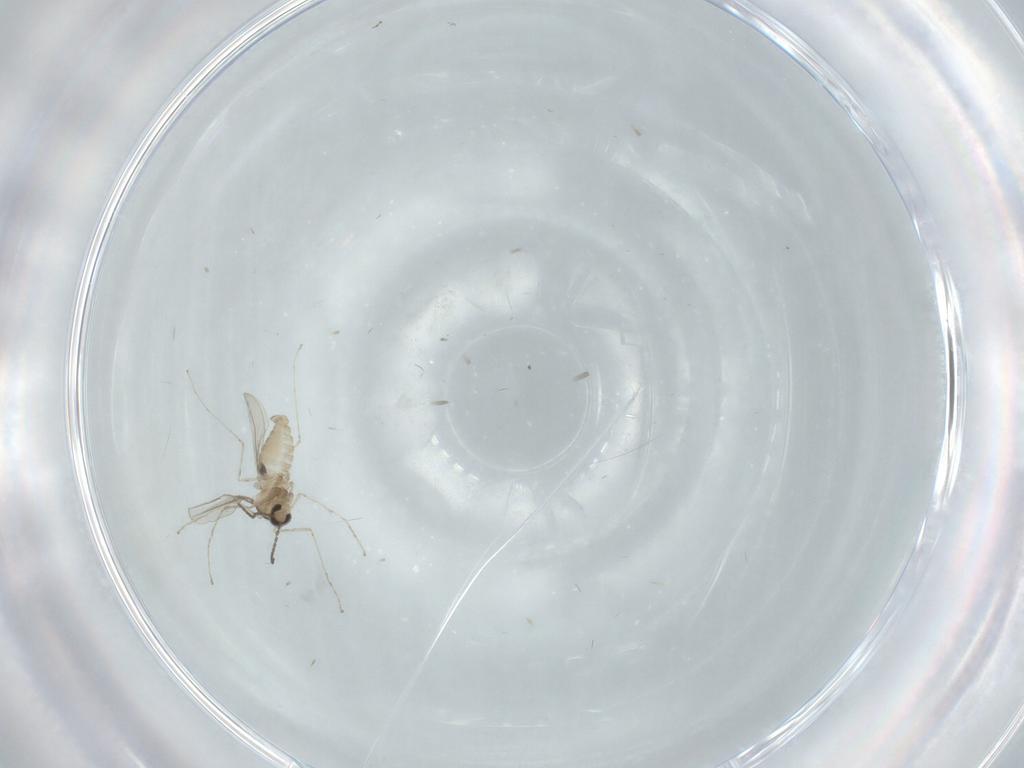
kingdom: Animalia
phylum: Arthropoda
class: Insecta
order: Diptera
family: Cecidomyiidae
